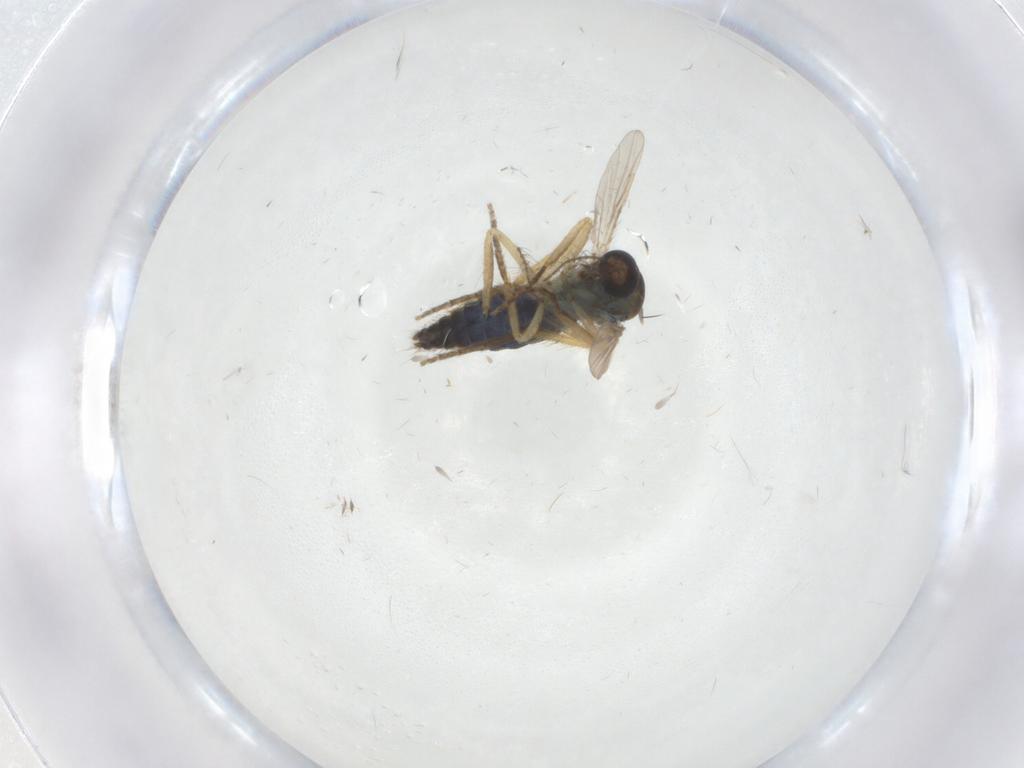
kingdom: Animalia
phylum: Arthropoda
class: Insecta
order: Diptera
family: Ceratopogonidae
